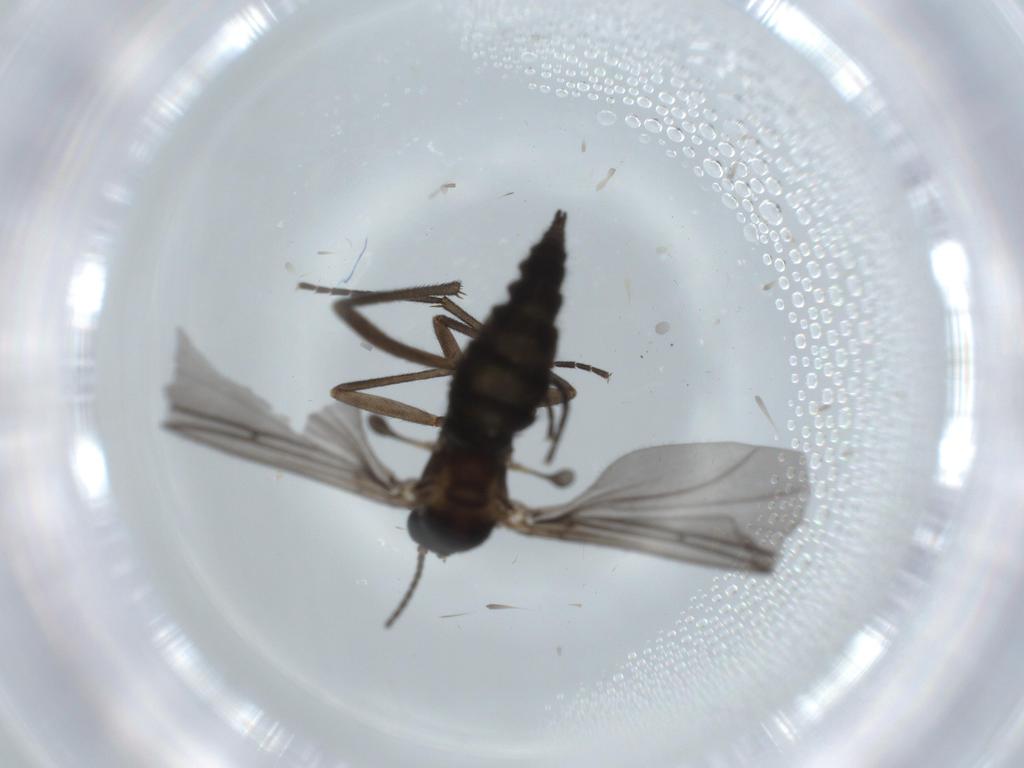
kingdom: Animalia
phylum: Arthropoda
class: Insecta
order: Diptera
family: Sciaridae
